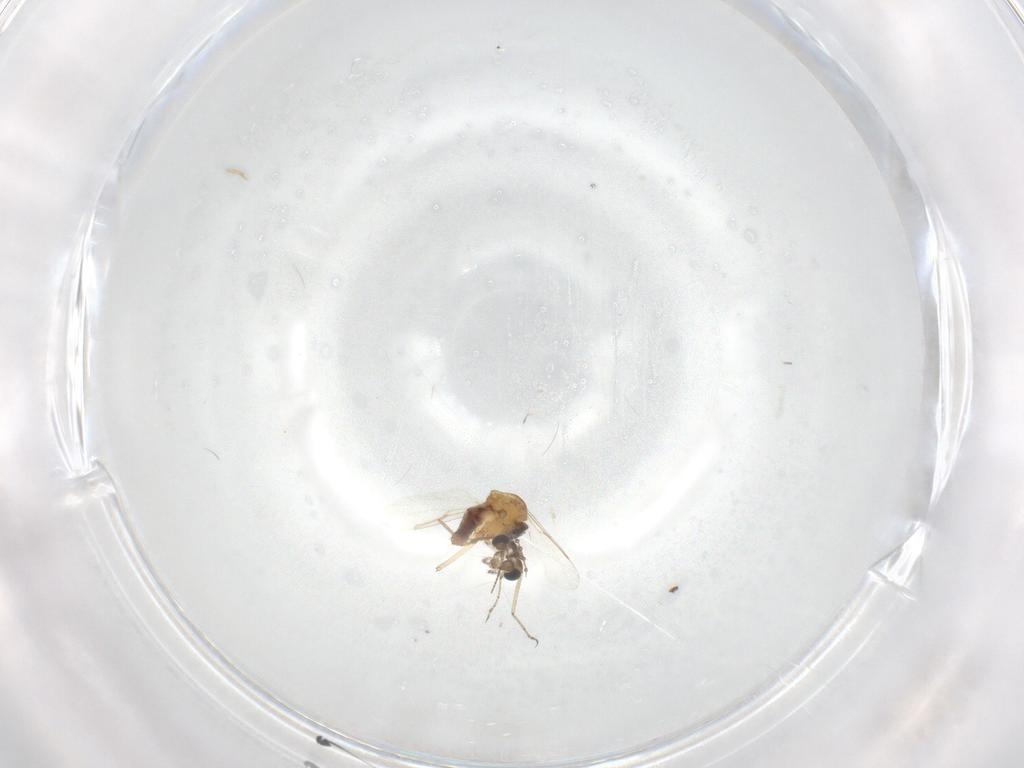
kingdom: Animalia
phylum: Arthropoda
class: Insecta
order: Diptera
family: Chironomidae
